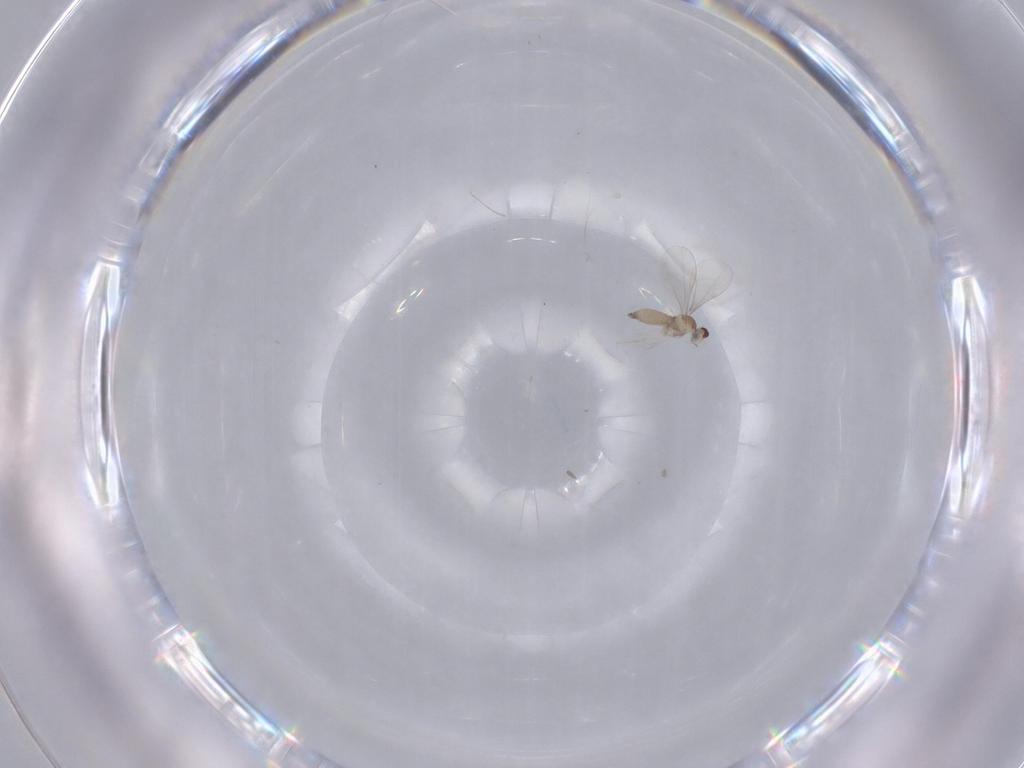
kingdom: Animalia
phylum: Arthropoda
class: Insecta
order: Diptera
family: Cecidomyiidae
